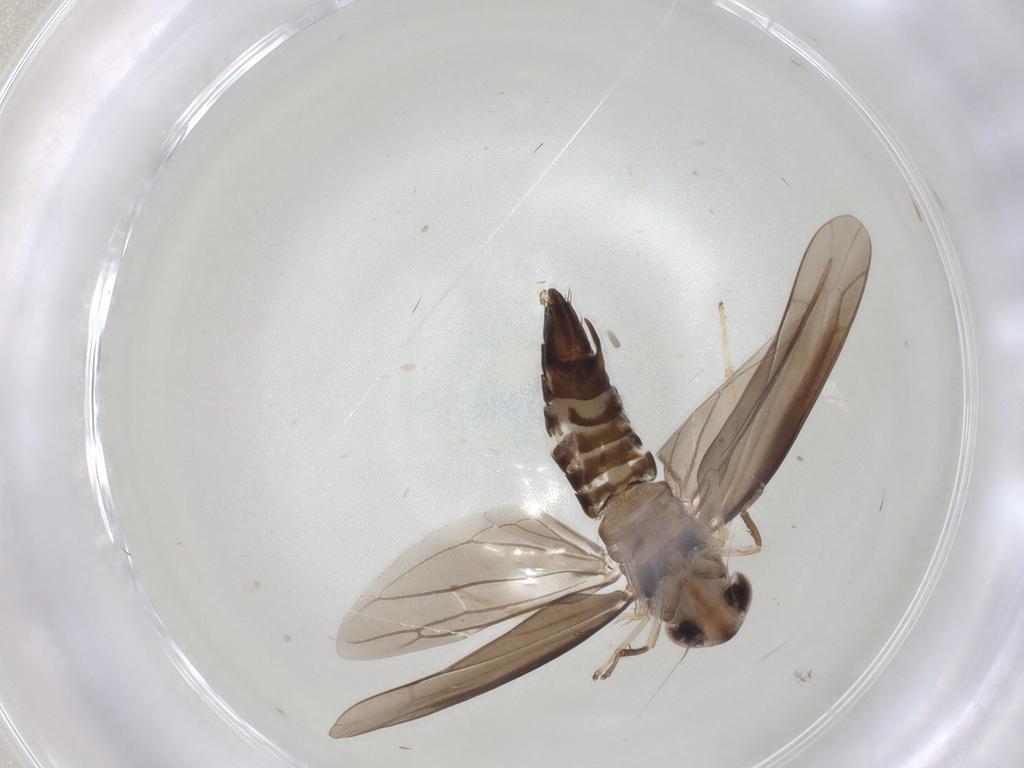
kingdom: Animalia
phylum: Arthropoda
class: Insecta
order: Hemiptera
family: Cicadellidae
